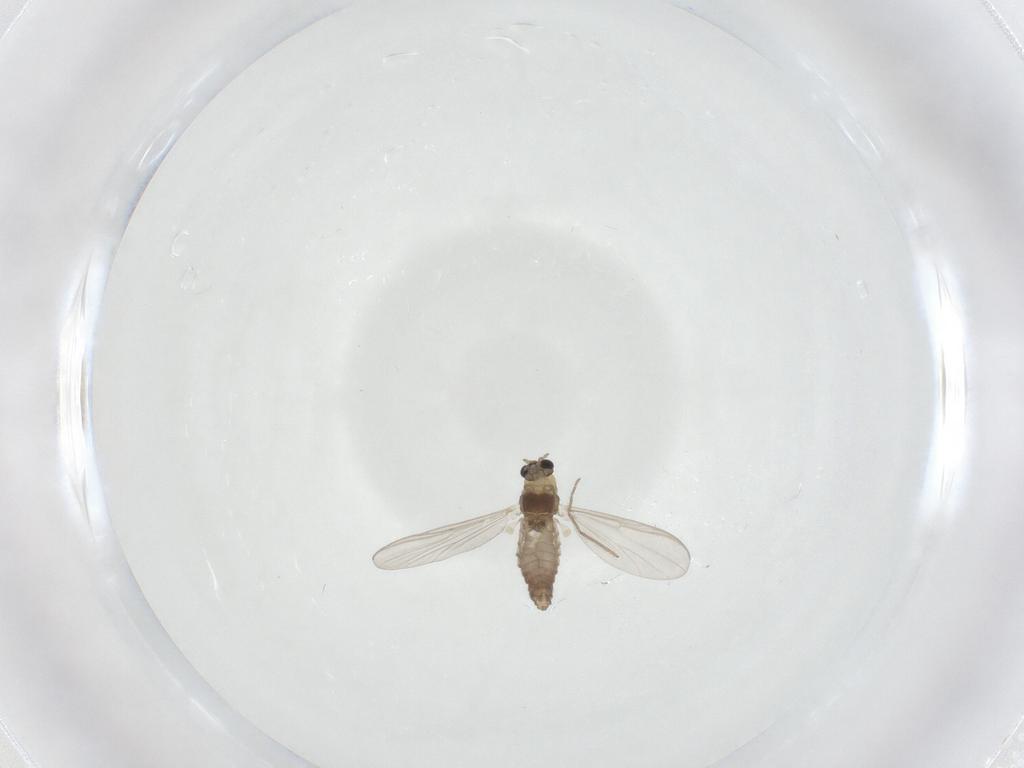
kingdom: Animalia
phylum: Arthropoda
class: Insecta
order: Diptera
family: Chironomidae
